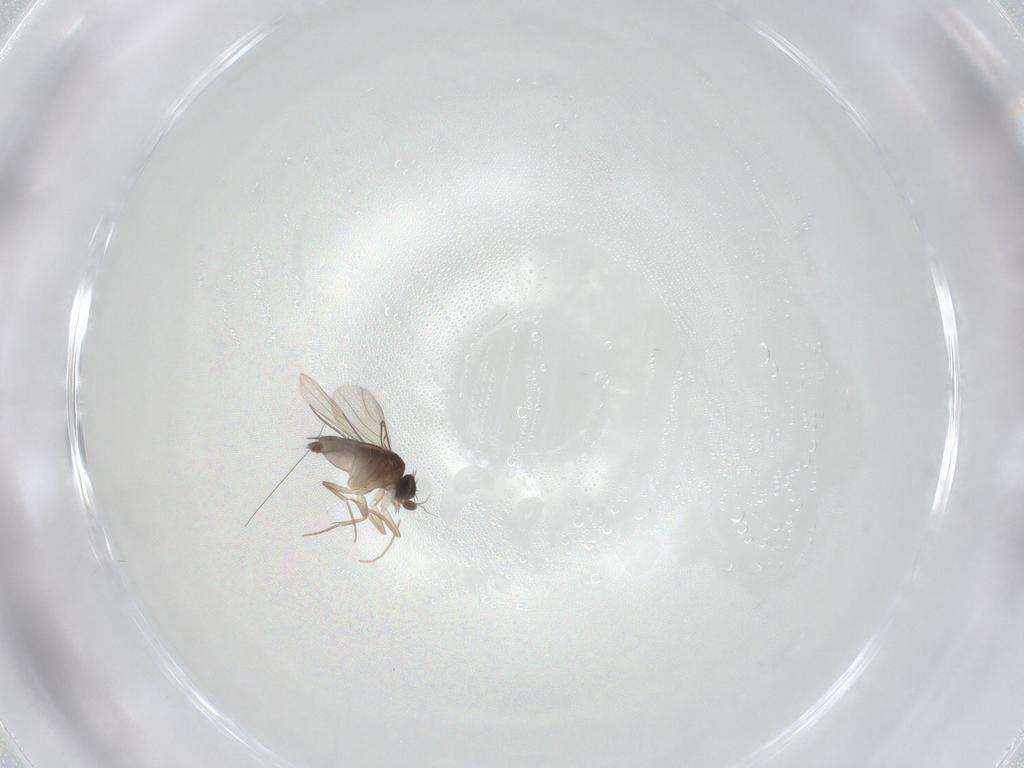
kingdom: Animalia
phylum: Arthropoda
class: Insecta
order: Diptera
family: Phoridae
